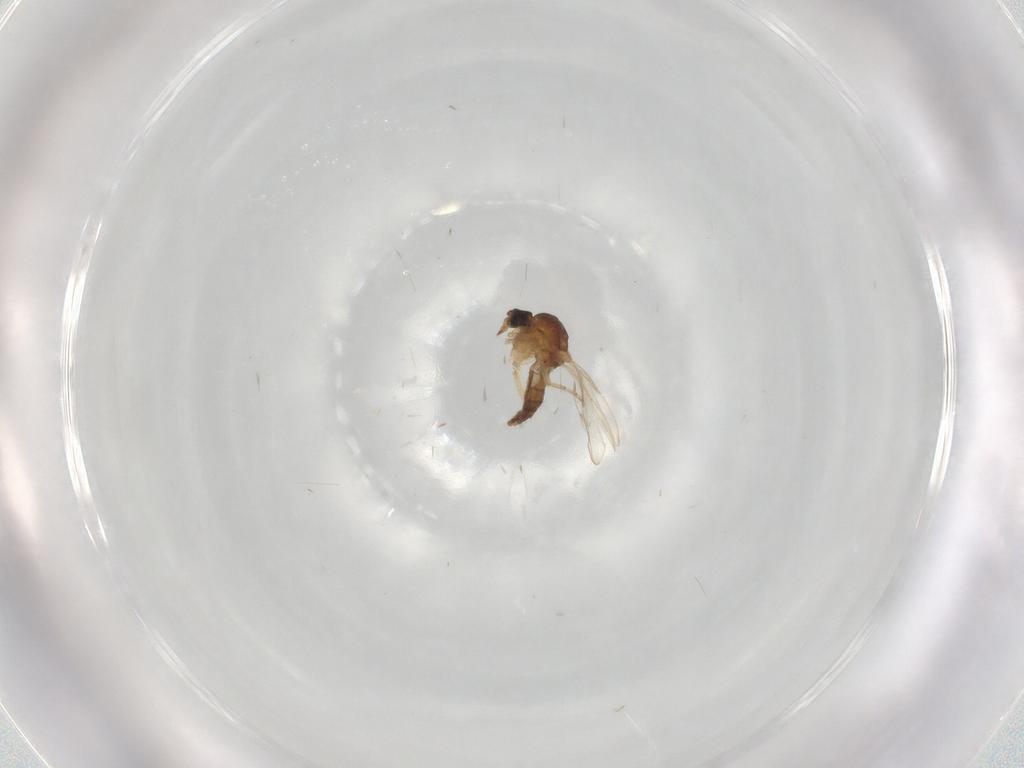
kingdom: Animalia
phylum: Arthropoda
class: Insecta
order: Diptera
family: Ceratopogonidae
